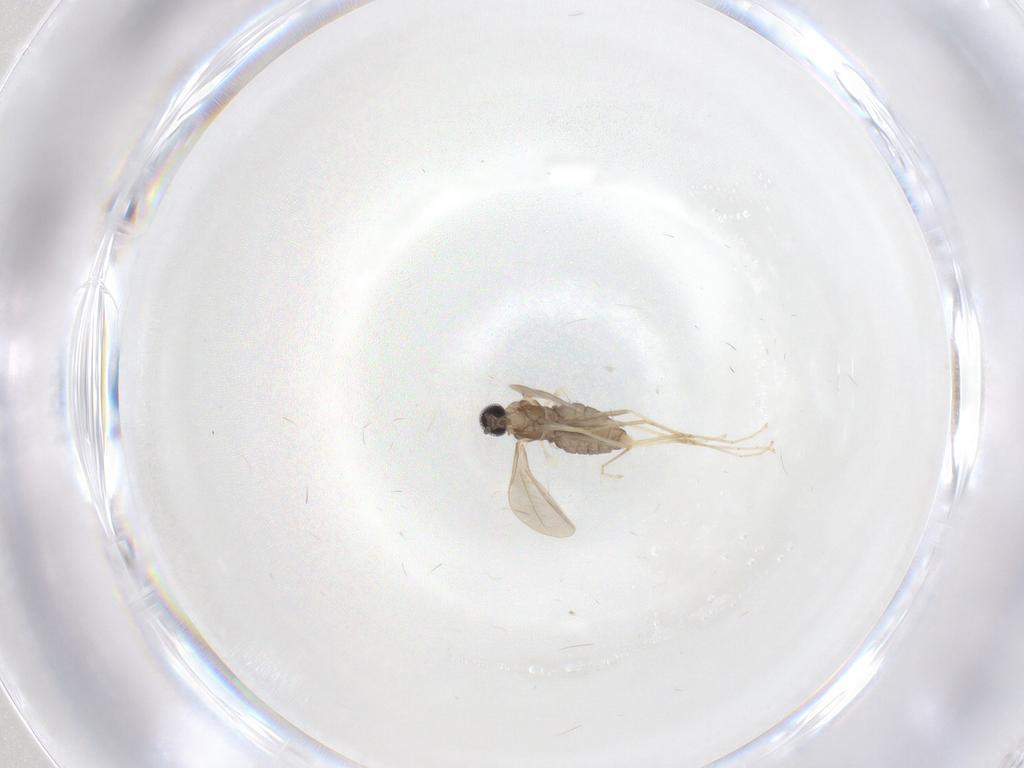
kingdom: Animalia
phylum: Arthropoda
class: Insecta
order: Diptera
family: Cecidomyiidae
